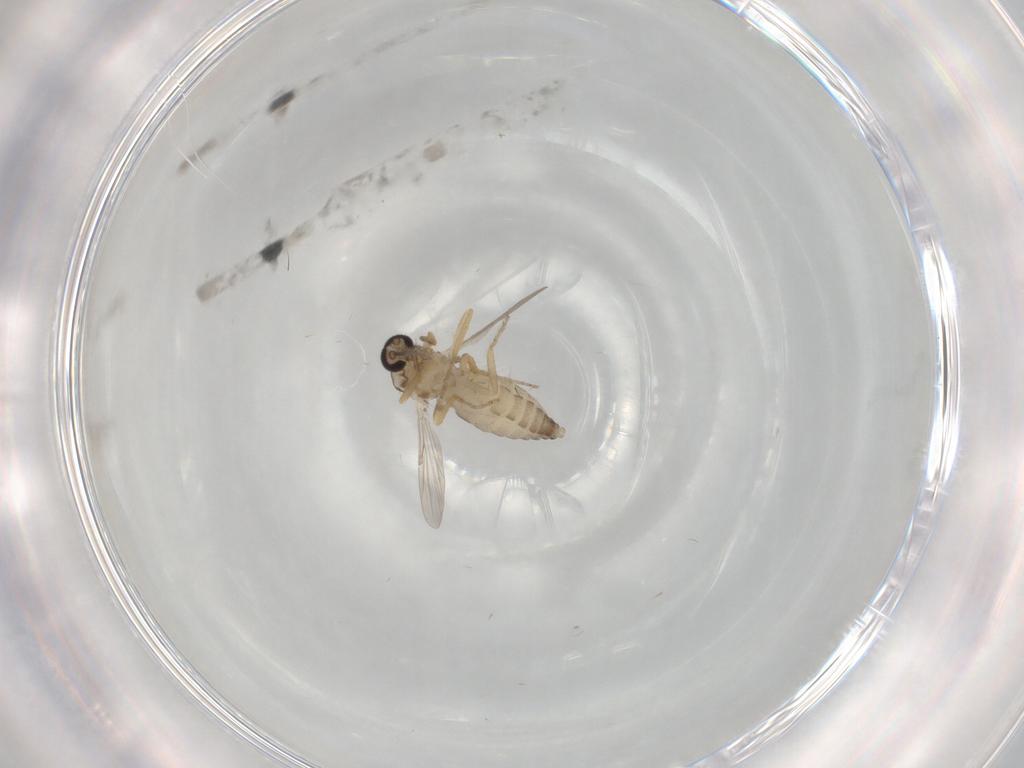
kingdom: Animalia
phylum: Arthropoda
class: Insecta
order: Diptera
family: Ceratopogonidae
